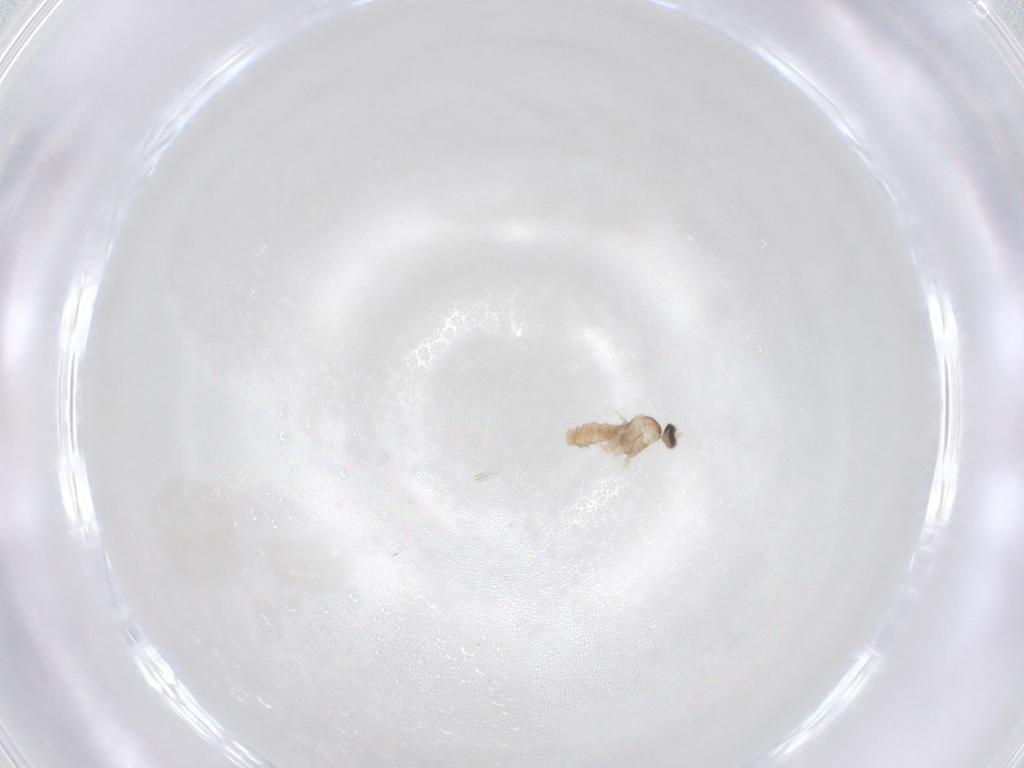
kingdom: Animalia
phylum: Arthropoda
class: Insecta
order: Diptera
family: Cecidomyiidae
